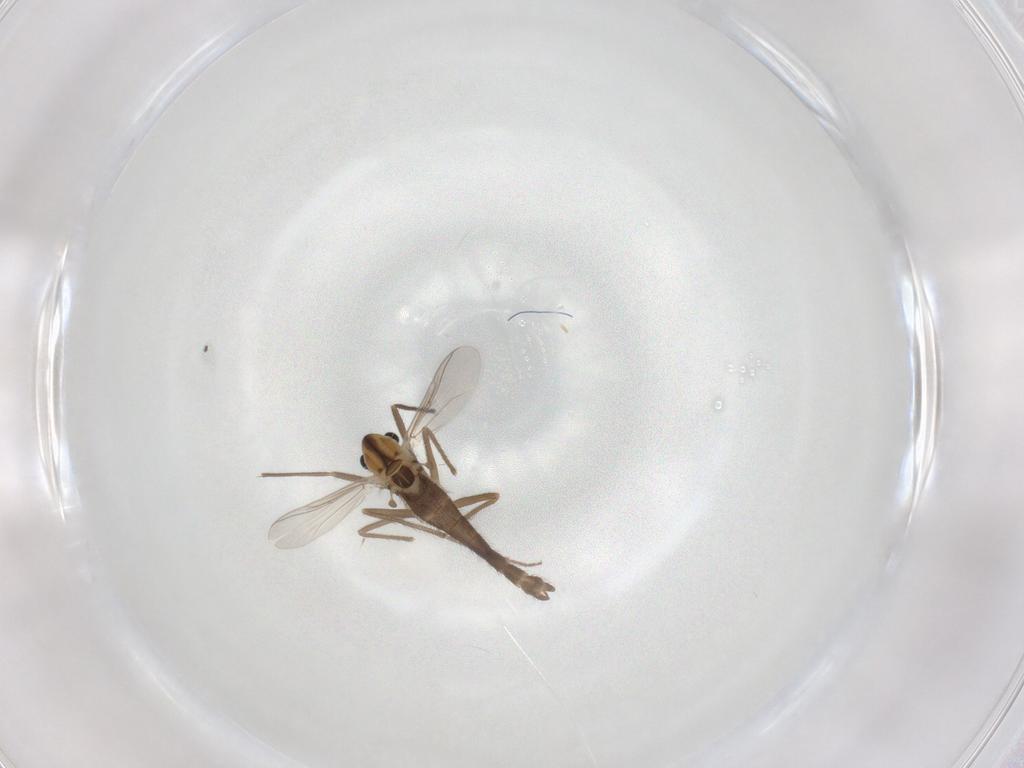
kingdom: Animalia
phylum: Arthropoda
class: Insecta
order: Diptera
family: Chironomidae
